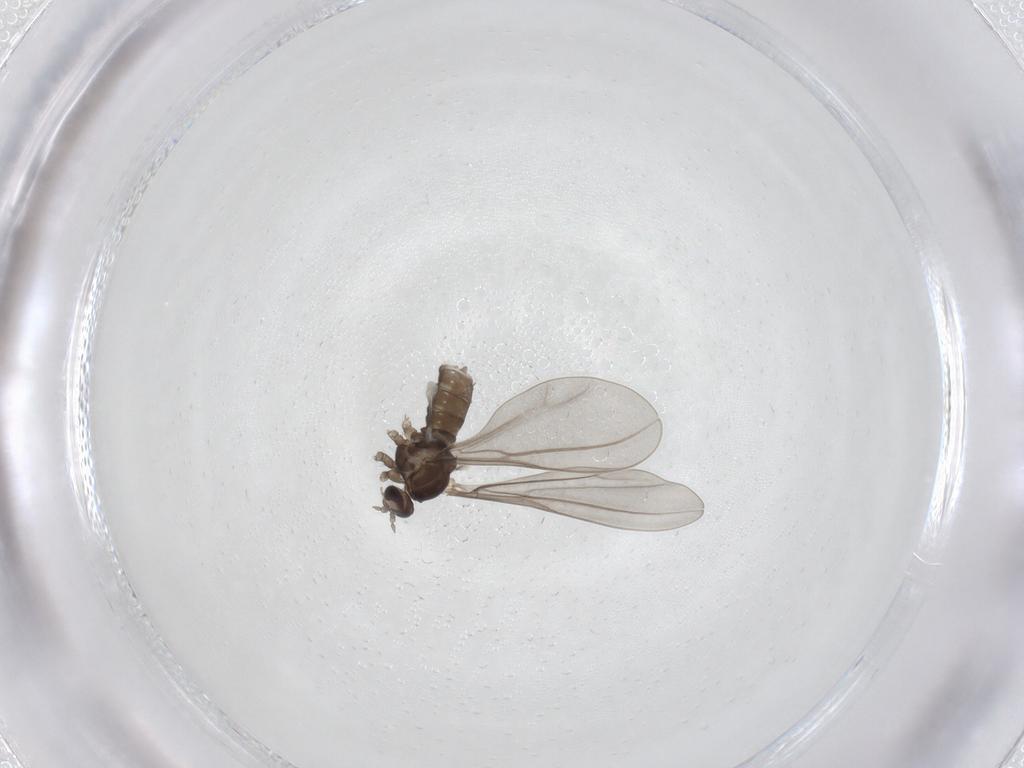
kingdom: Animalia
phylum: Arthropoda
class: Insecta
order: Diptera
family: Cecidomyiidae
